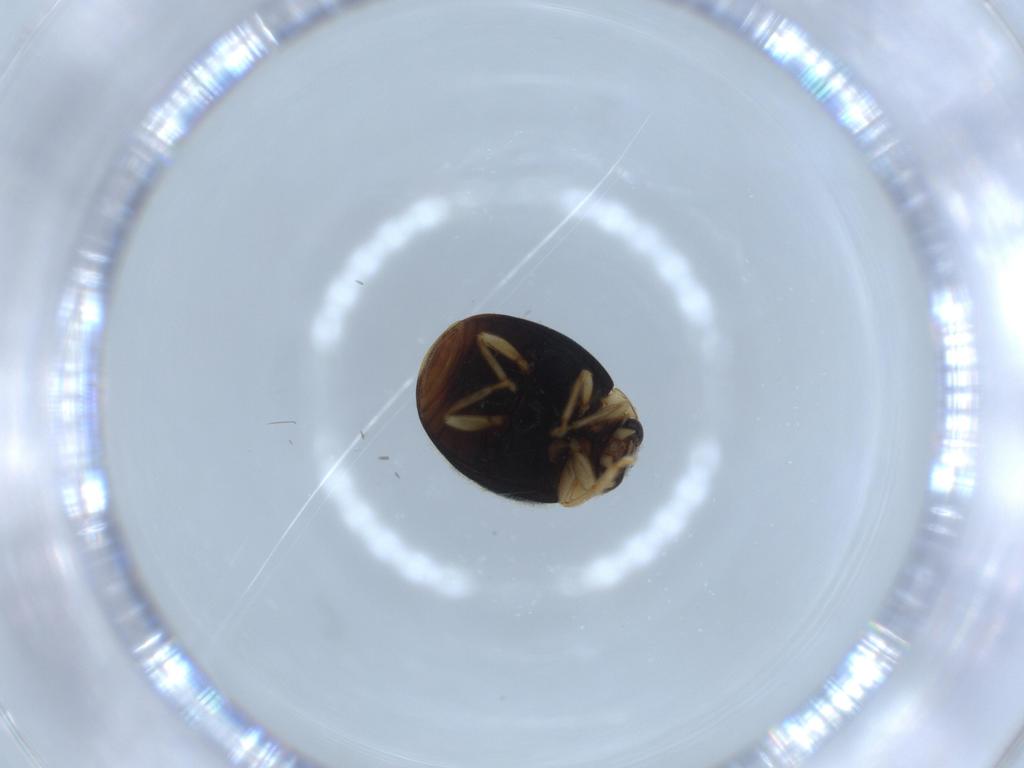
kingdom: Animalia
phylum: Arthropoda
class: Insecta
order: Coleoptera
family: Coccinellidae
